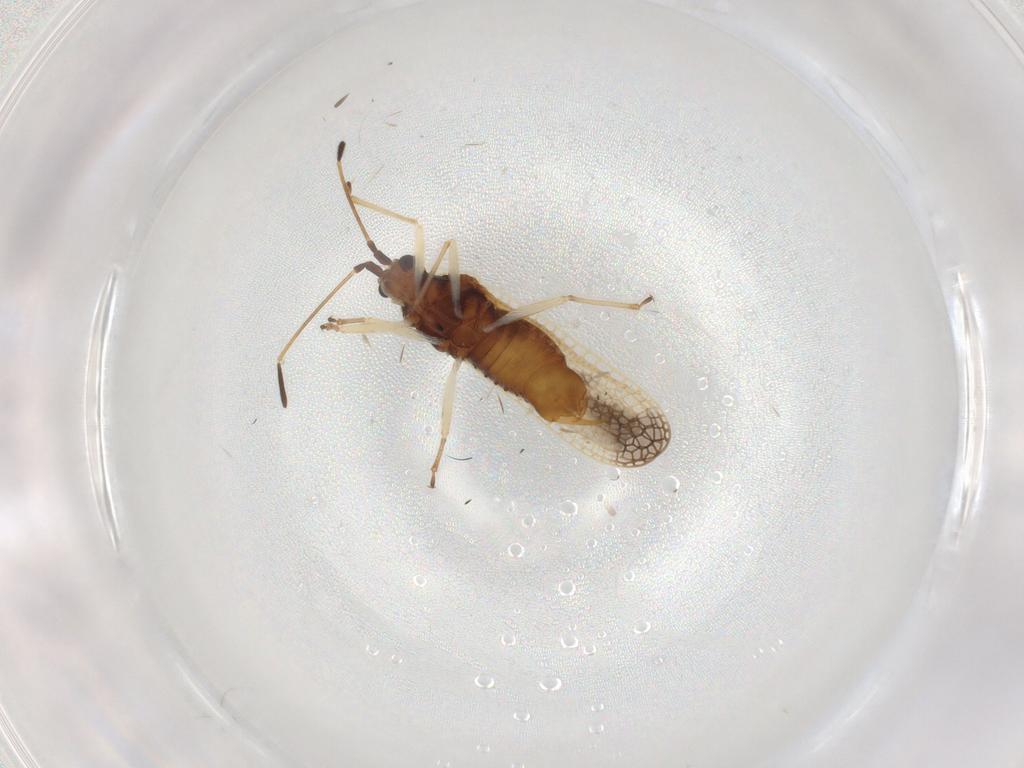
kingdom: Animalia
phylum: Arthropoda
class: Insecta
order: Hemiptera
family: Tingidae
